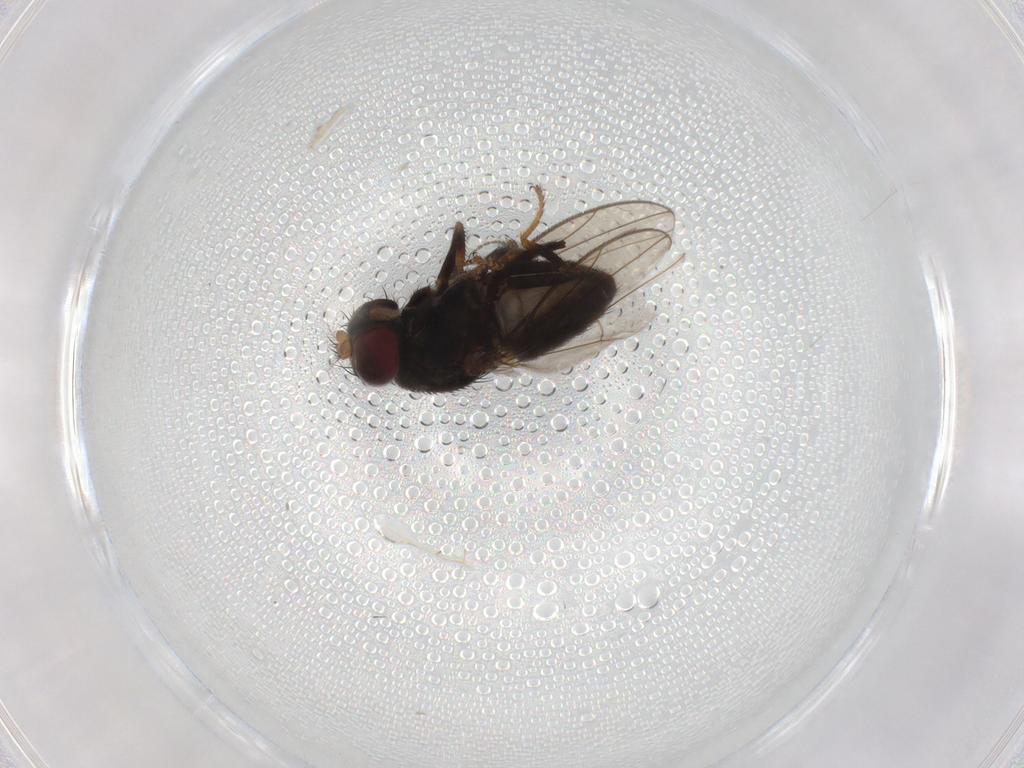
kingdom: Animalia
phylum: Arthropoda
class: Insecta
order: Diptera
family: Ephydridae
